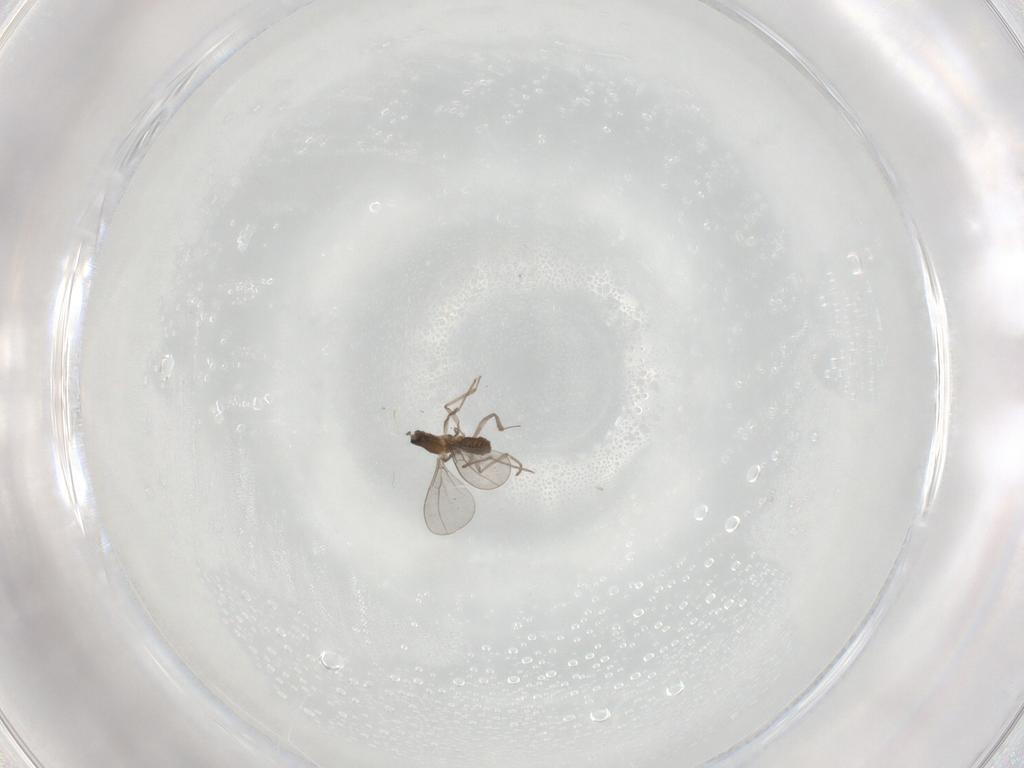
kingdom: Animalia
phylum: Arthropoda
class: Insecta
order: Diptera
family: Cecidomyiidae
